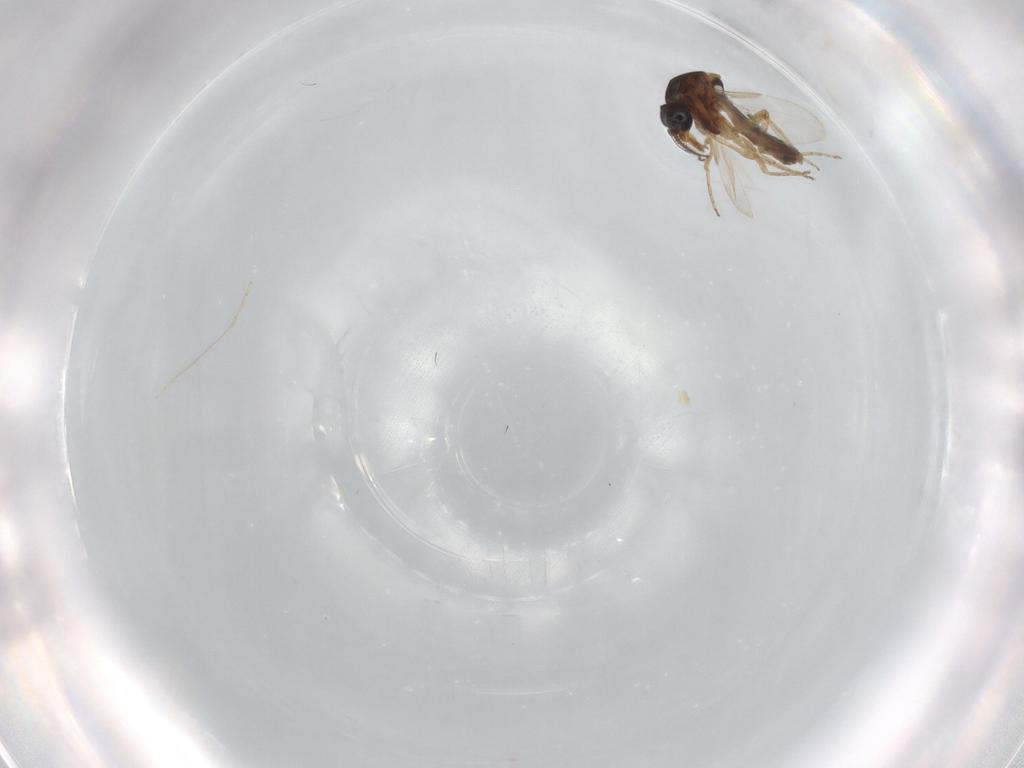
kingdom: Animalia
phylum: Arthropoda
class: Insecta
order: Diptera
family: Ceratopogonidae
